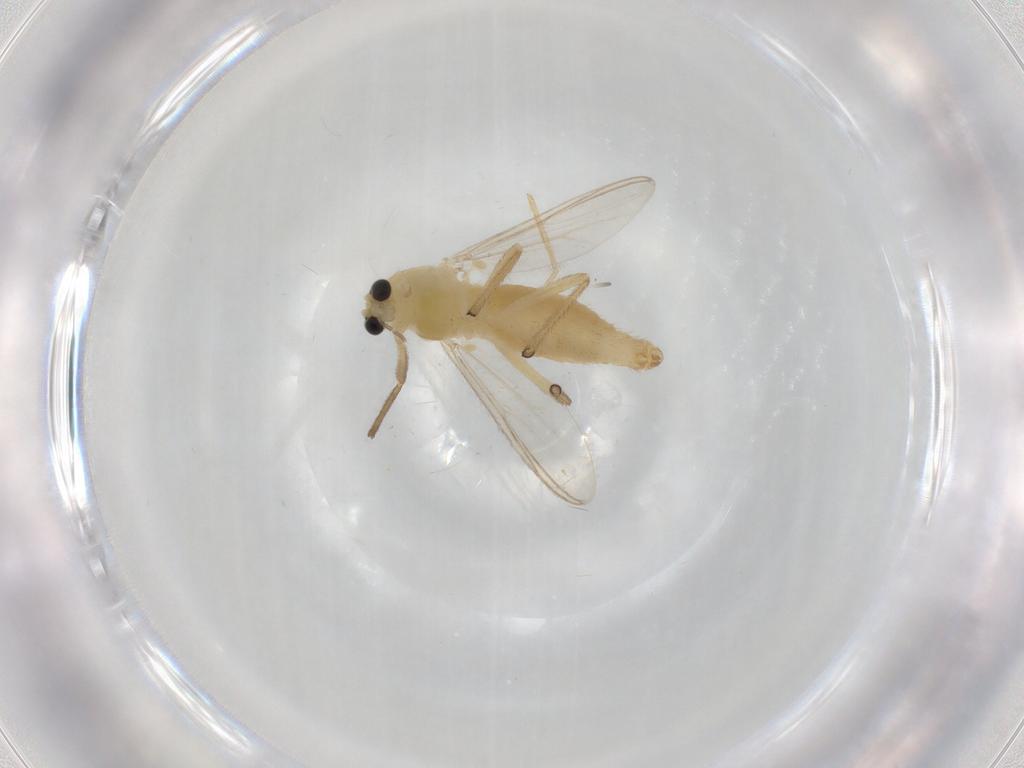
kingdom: Animalia
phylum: Arthropoda
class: Insecta
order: Diptera
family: Chironomidae
